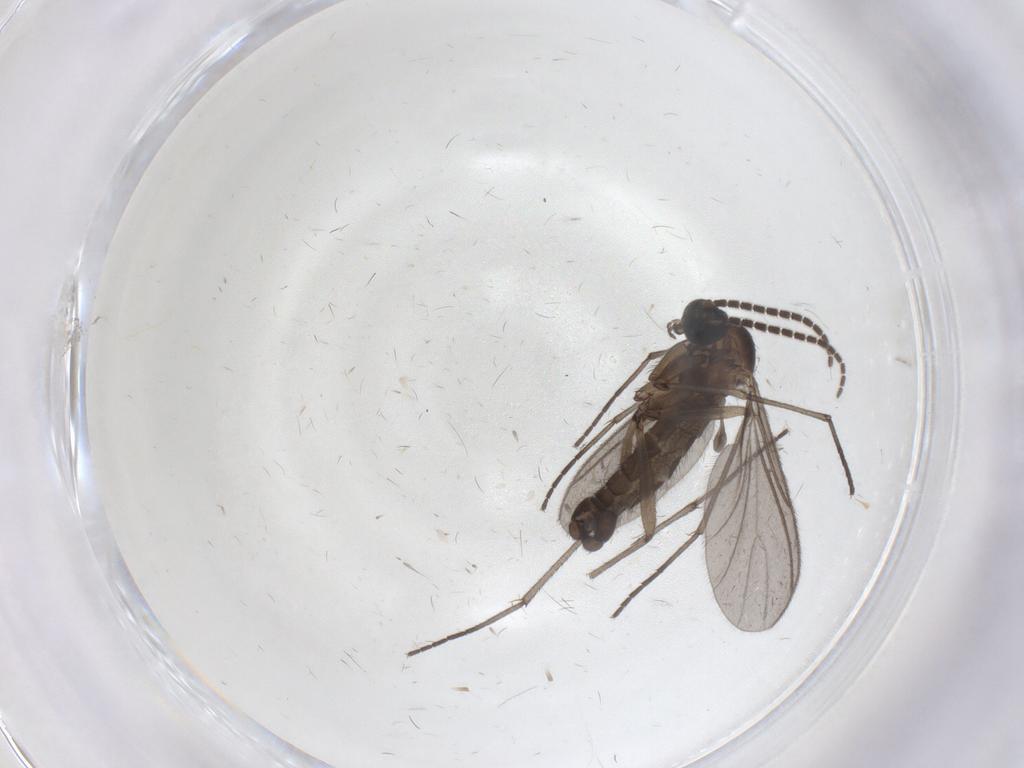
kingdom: Animalia
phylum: Arthropoda
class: Insecta
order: Diptera
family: Sciaridae
